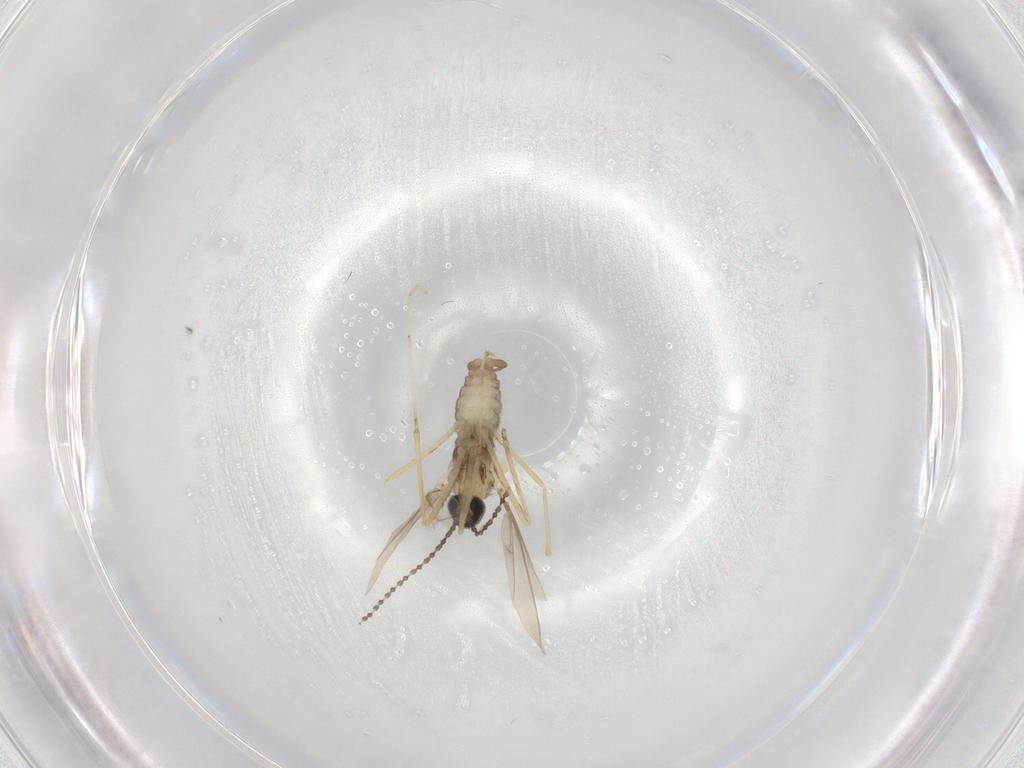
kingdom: Animalia
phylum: Arthropoda
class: Insecta
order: Diptera
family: Cecidomyiidae
